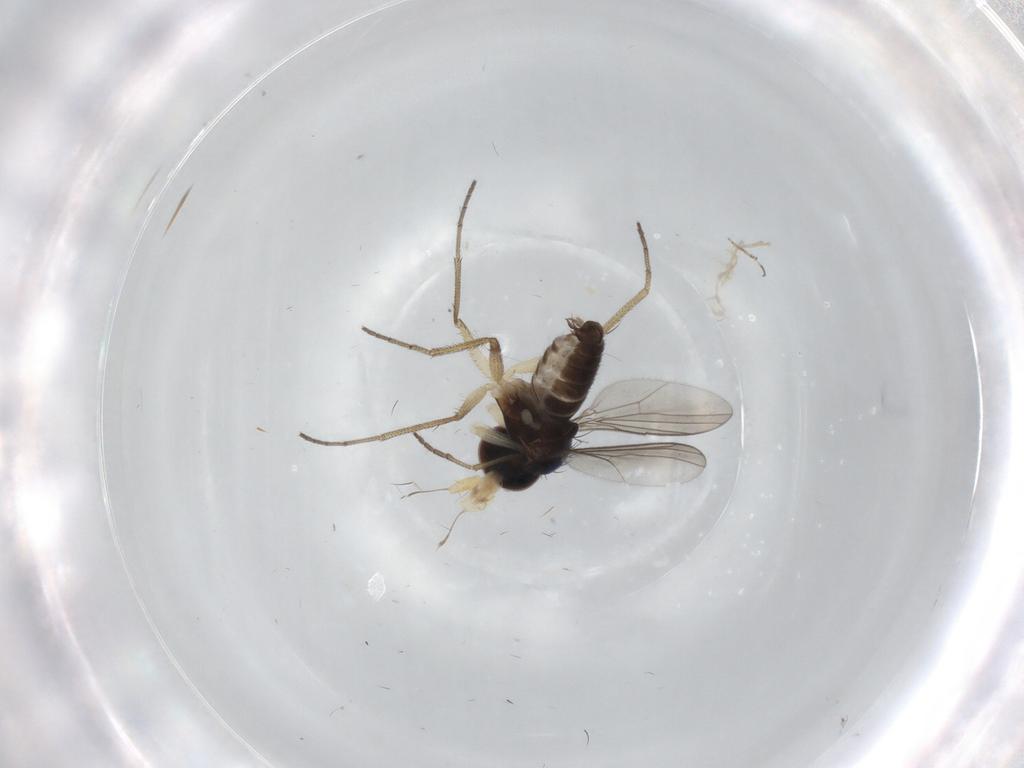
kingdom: Animalia
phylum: Arthropoda
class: Insecta
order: Diptera
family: Dolichopodidae
